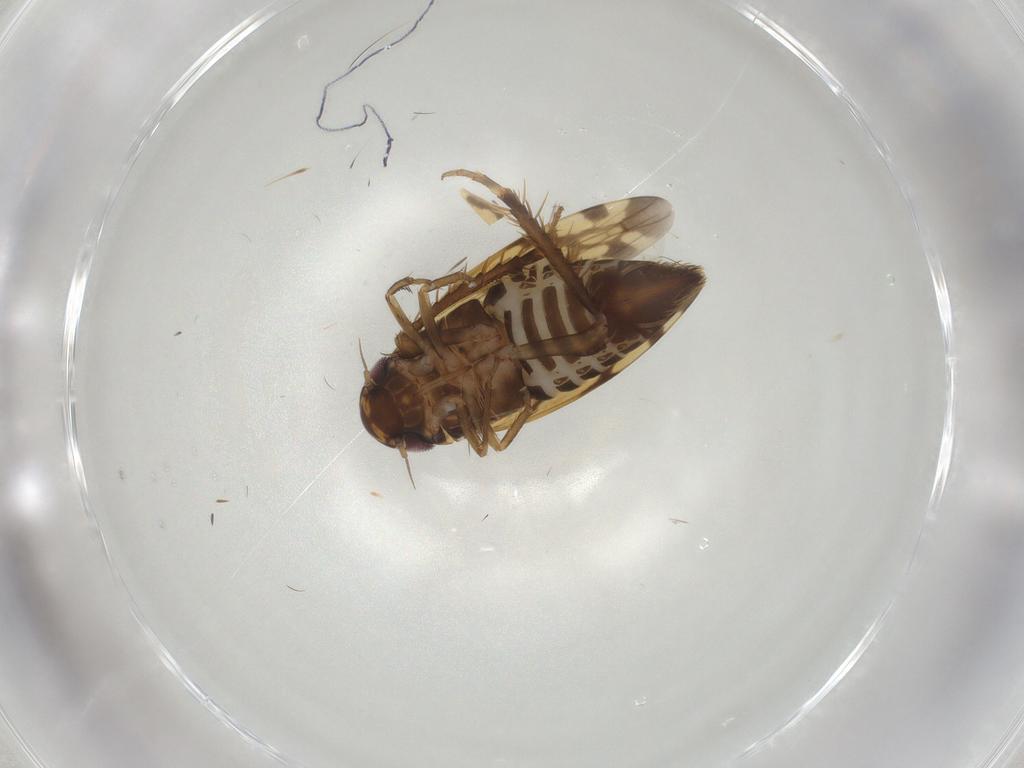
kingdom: Animalia
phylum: Arthropoda
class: Insecta
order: Hemiptera
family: Cicadellidae
